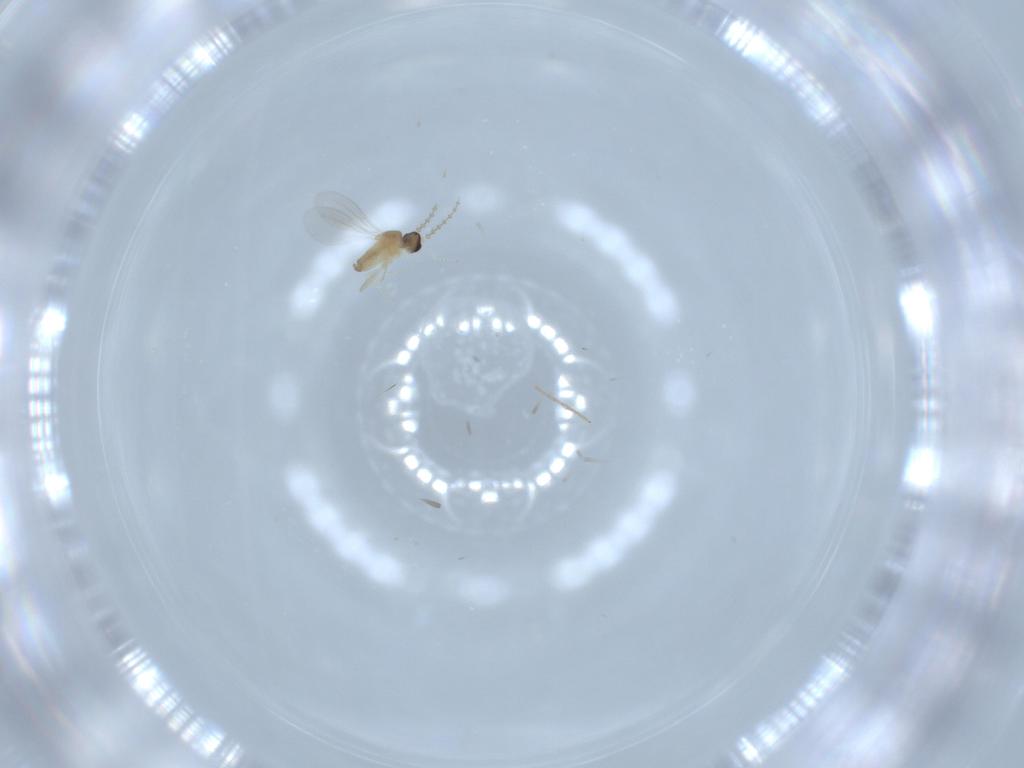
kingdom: Animalia
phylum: Arthropoda
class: Insecta
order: Diptera
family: Cecidomyiidae
